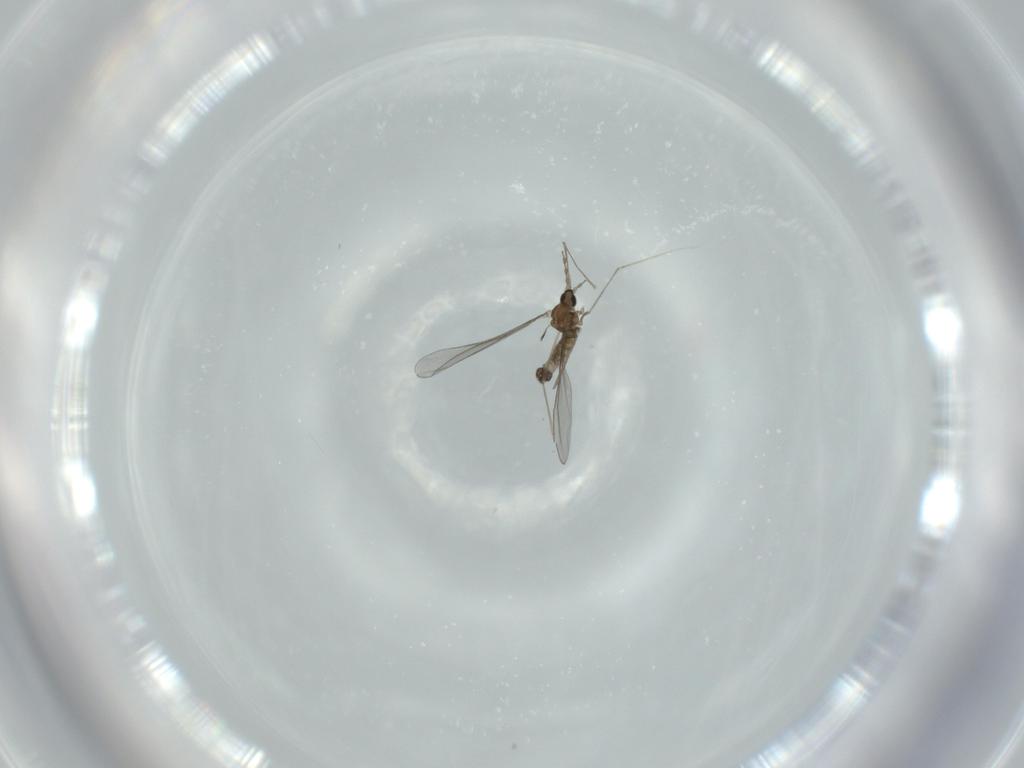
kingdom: Animalia
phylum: Arthropoda
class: Insecta
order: Diptera
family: Cecidomyiidae
